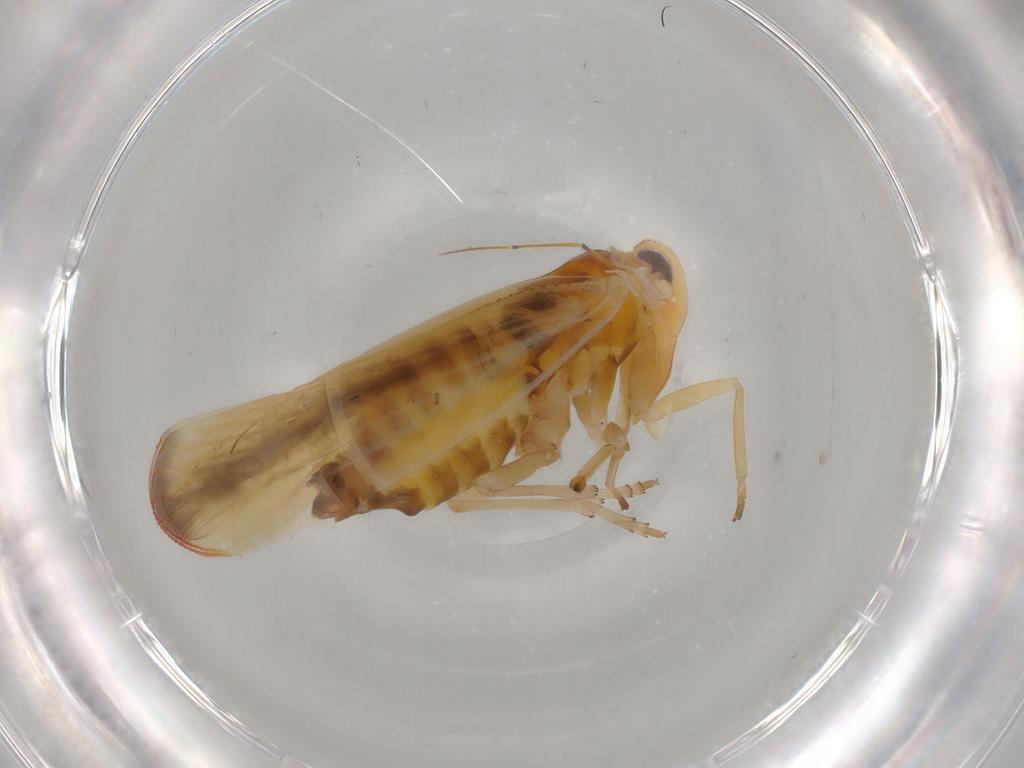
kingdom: Animalia
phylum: Arthropoda
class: Insecta
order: Hemiptera
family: Derbidae
